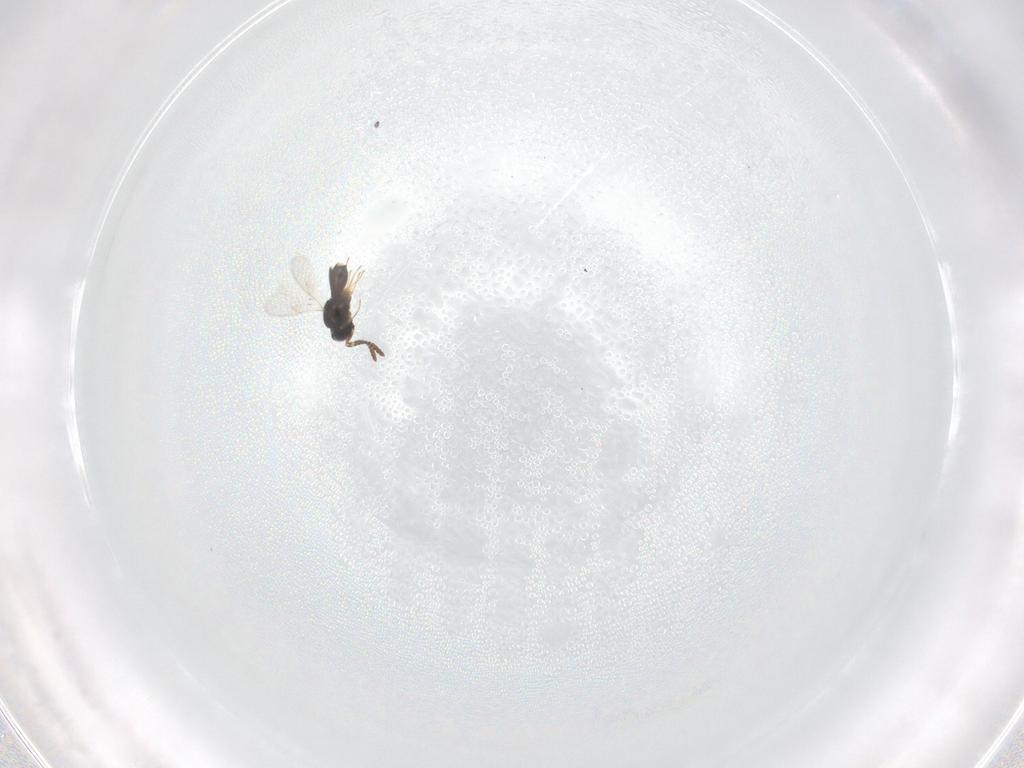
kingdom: Animalia
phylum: Arthropoda
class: Insecta
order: Hymenoptera
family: Scelionidae
